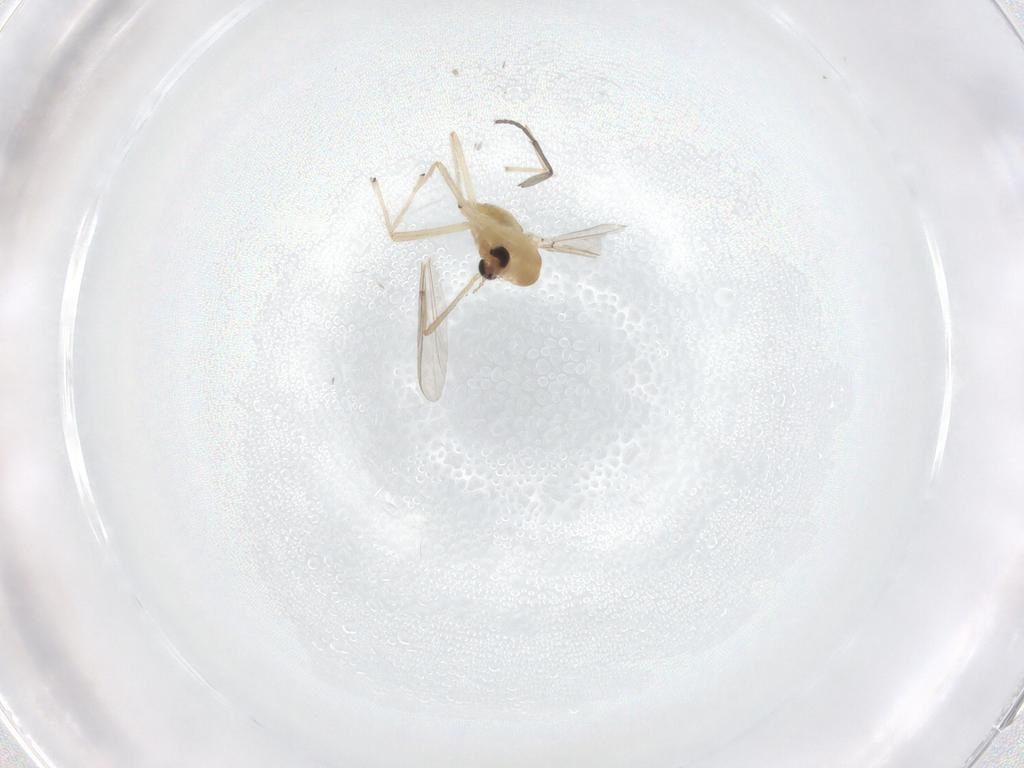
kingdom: Animalia
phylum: Arthropoda
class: Insecta
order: Diptera
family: Chironomidae
